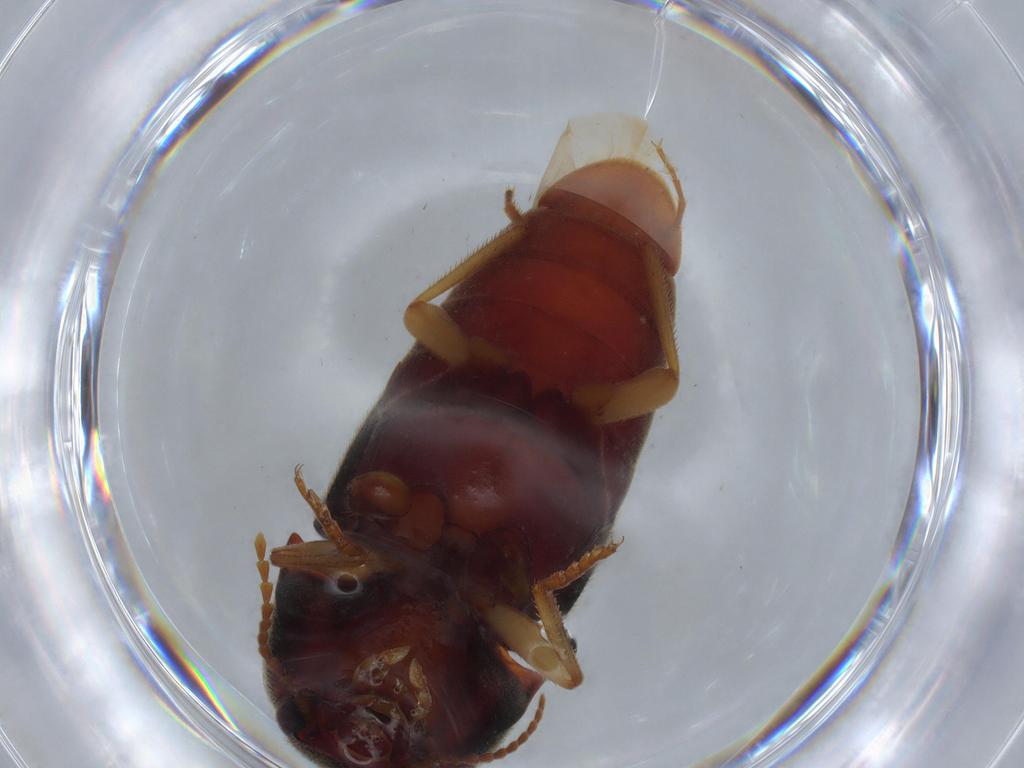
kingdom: Animalia
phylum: Arthropoda
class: Insecta
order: Coleoptera
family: Elateridae
